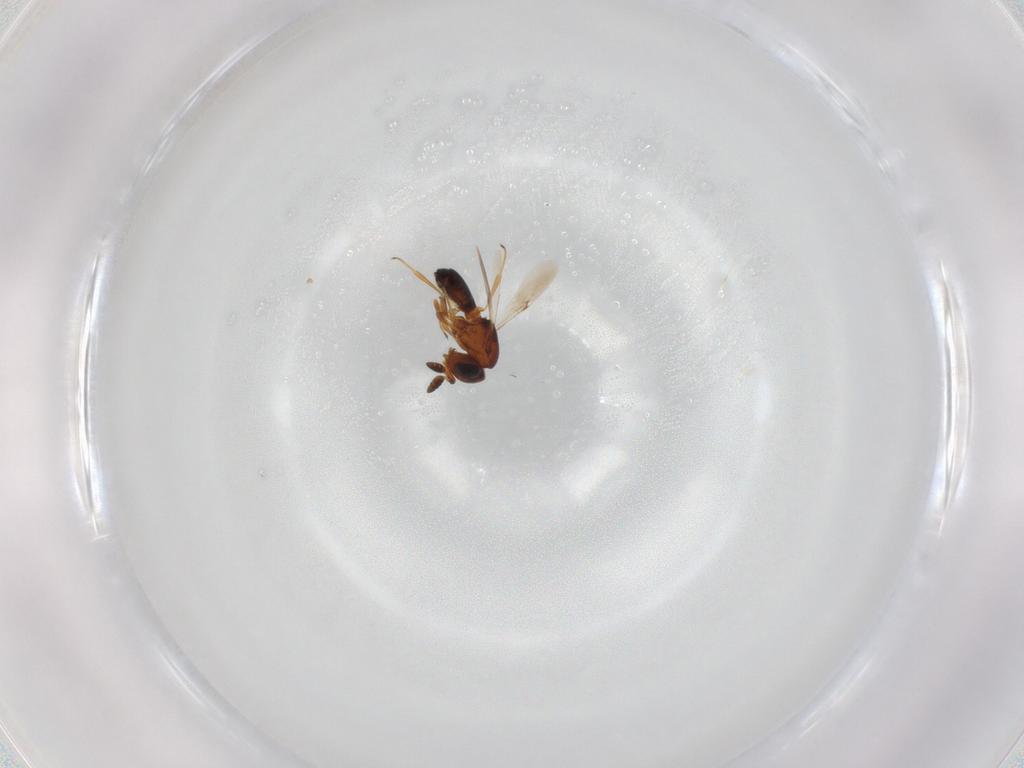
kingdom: Animalia
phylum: Arthropoda
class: Insecta
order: Hymenoptera
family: Scelionidae
